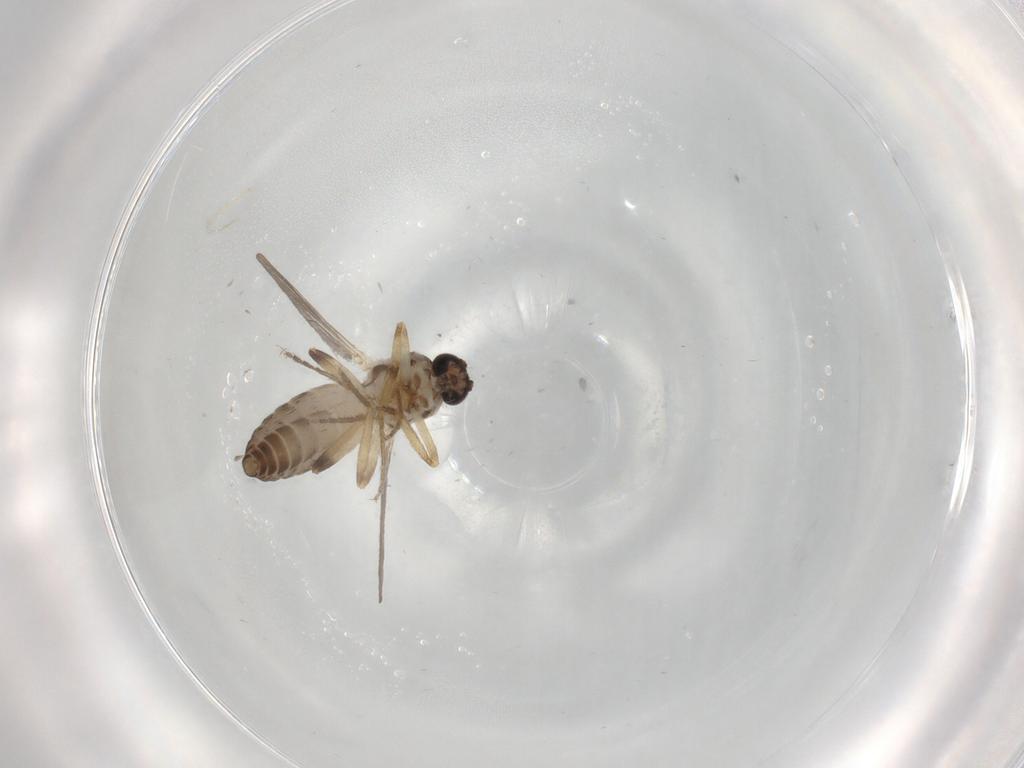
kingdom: Animalia
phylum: Arthropoda
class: Insecta
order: Diptera
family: Ceratopogonidae
